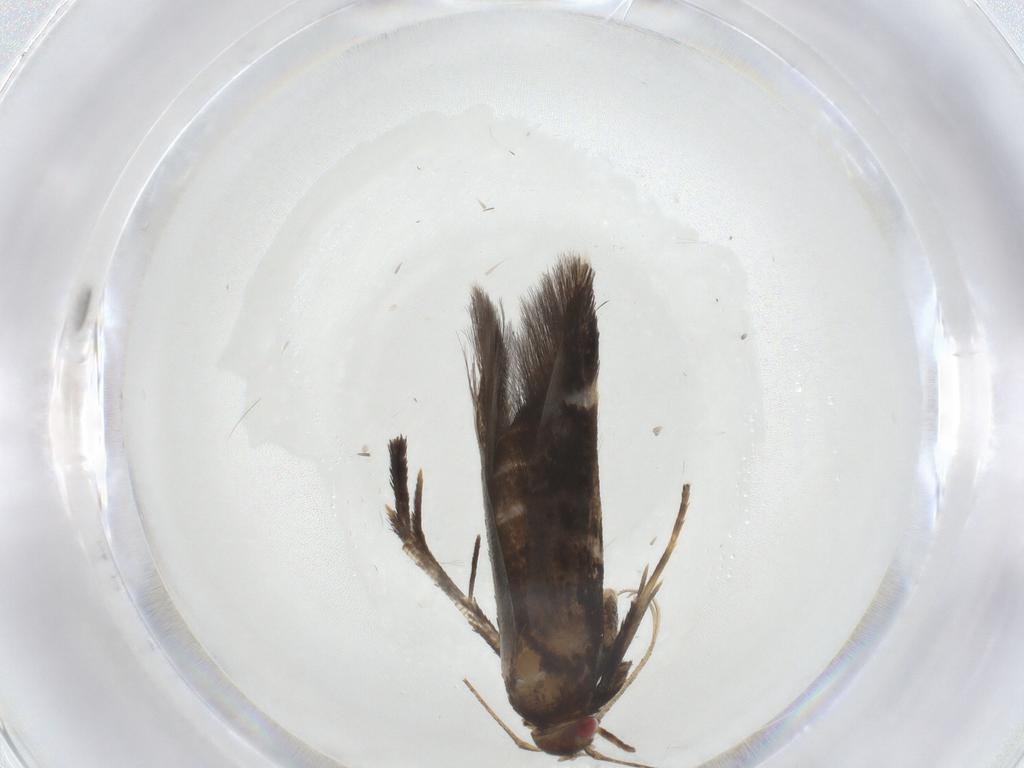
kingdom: Animalia
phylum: Arthropoda
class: Insecta
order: Lepidoptera
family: Gelechiidae
